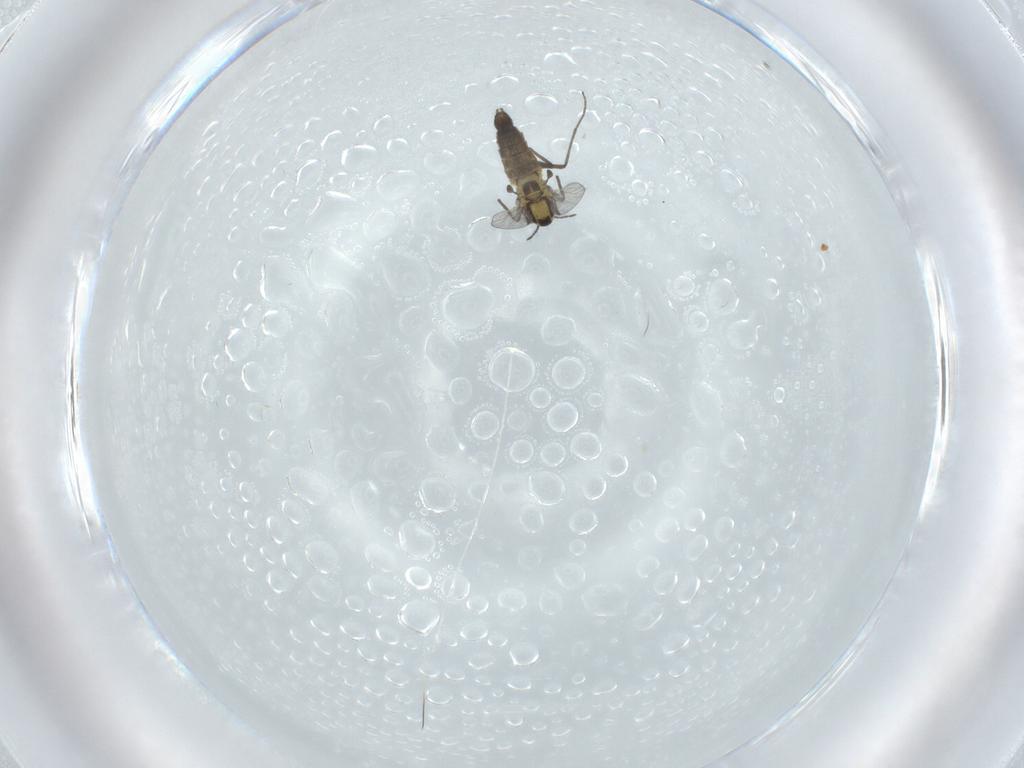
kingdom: Animalia
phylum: Arthropoda
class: Insecta
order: Diptera
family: Chironomidae
